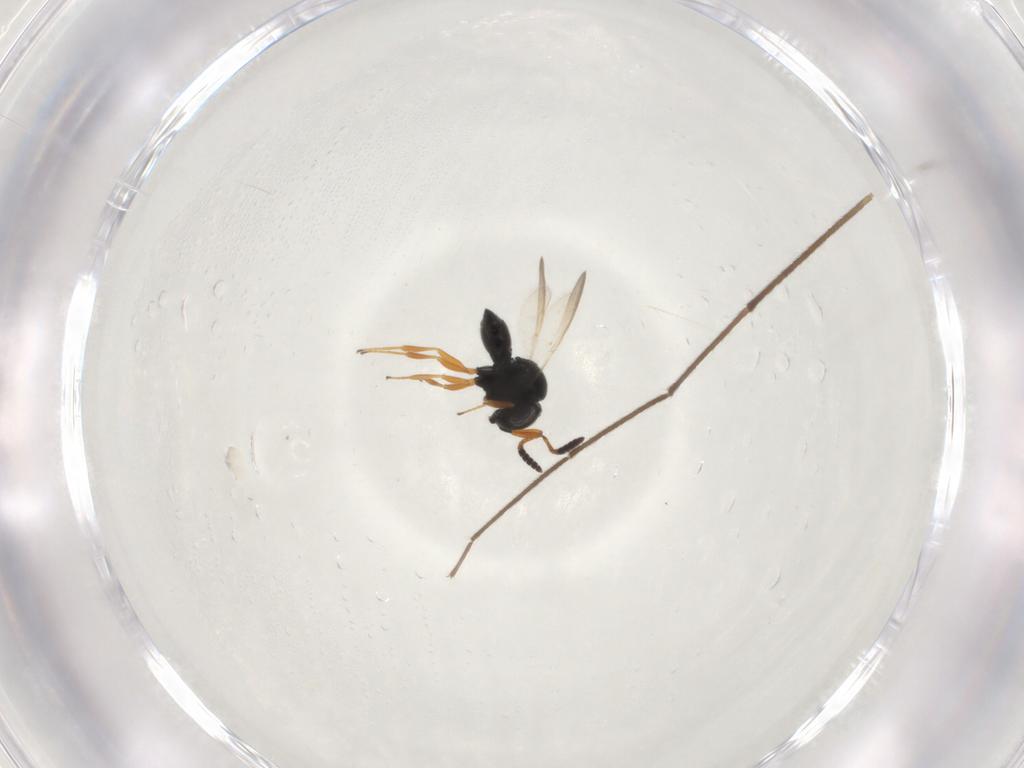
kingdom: Animalia
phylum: Arthropoda
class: Insecta
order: Hymenoptera
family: Scelionidae
